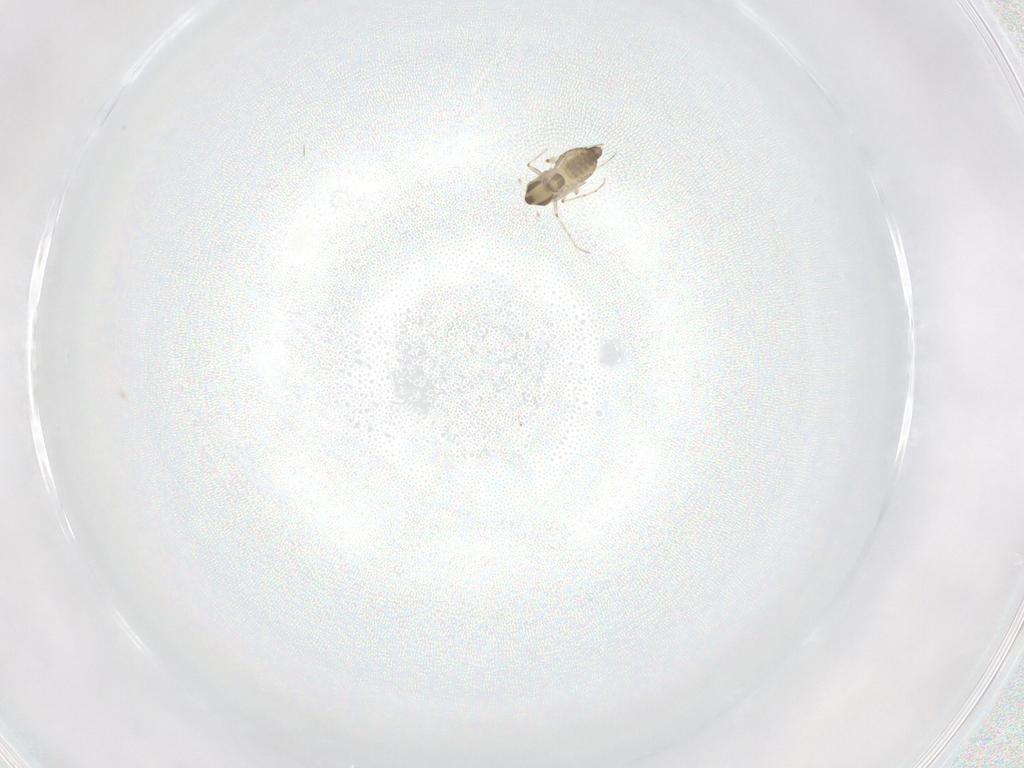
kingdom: Animalia
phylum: Arthropoda
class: Insecta
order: Diptera
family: Chironomidae
